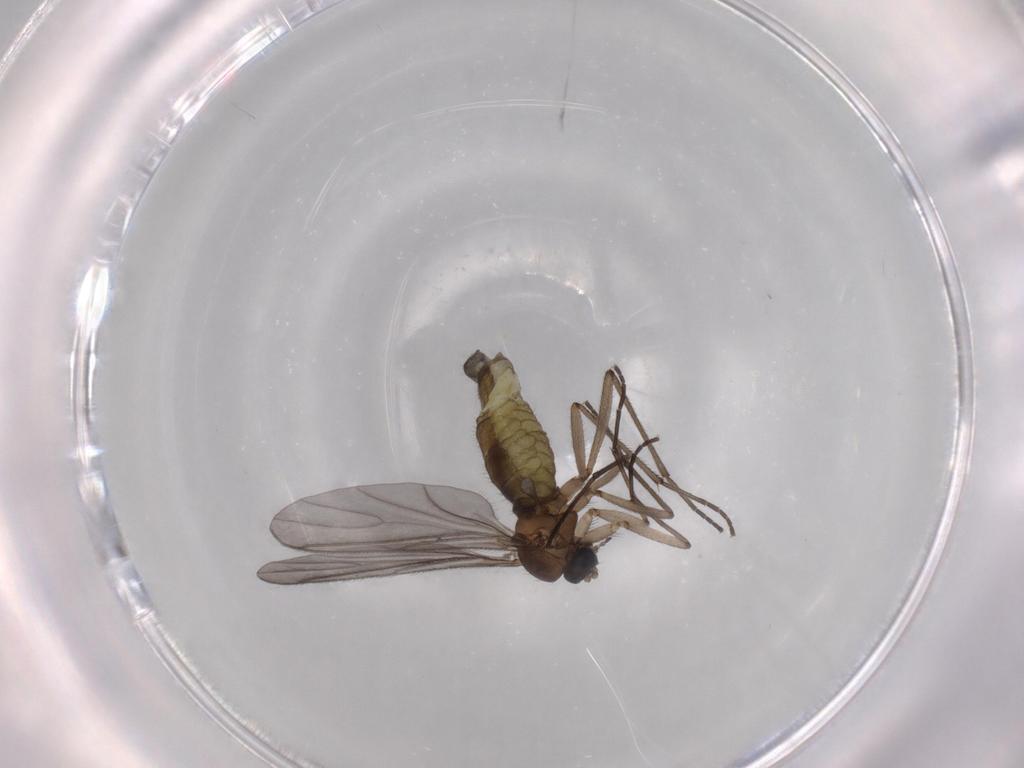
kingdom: Animalia
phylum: Arthropoda
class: Insecta
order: Diptera
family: Sciaridae
